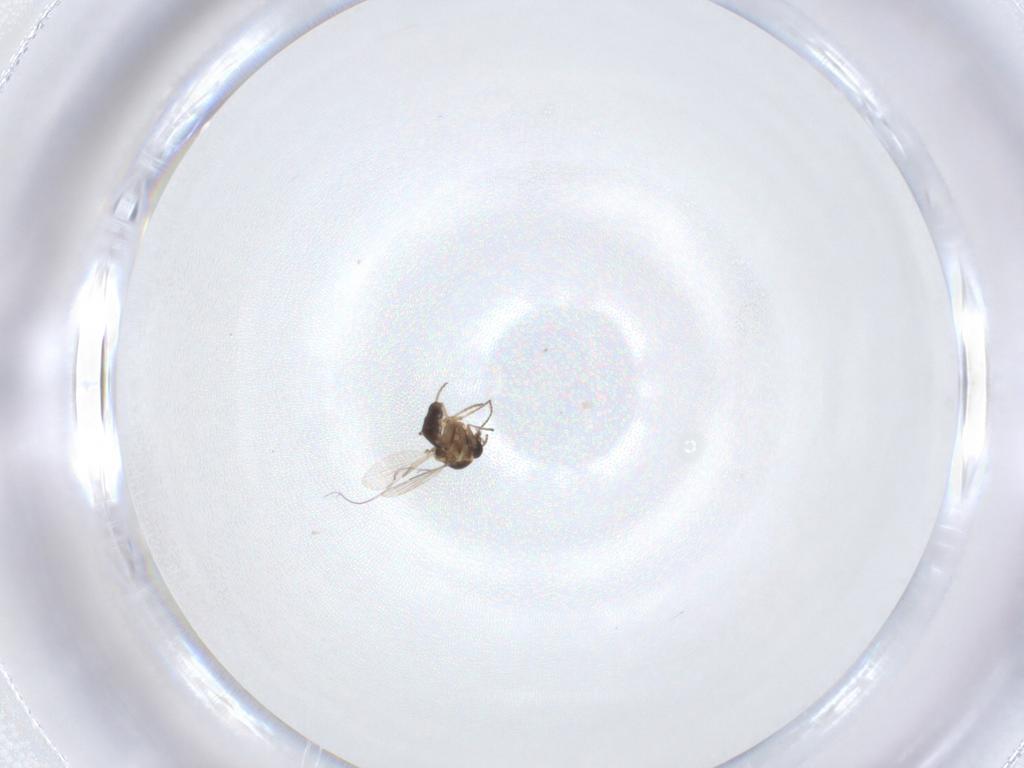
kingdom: Animalia
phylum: Arthropoda
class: Insecta
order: Diptera
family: Ceratopogonidae
